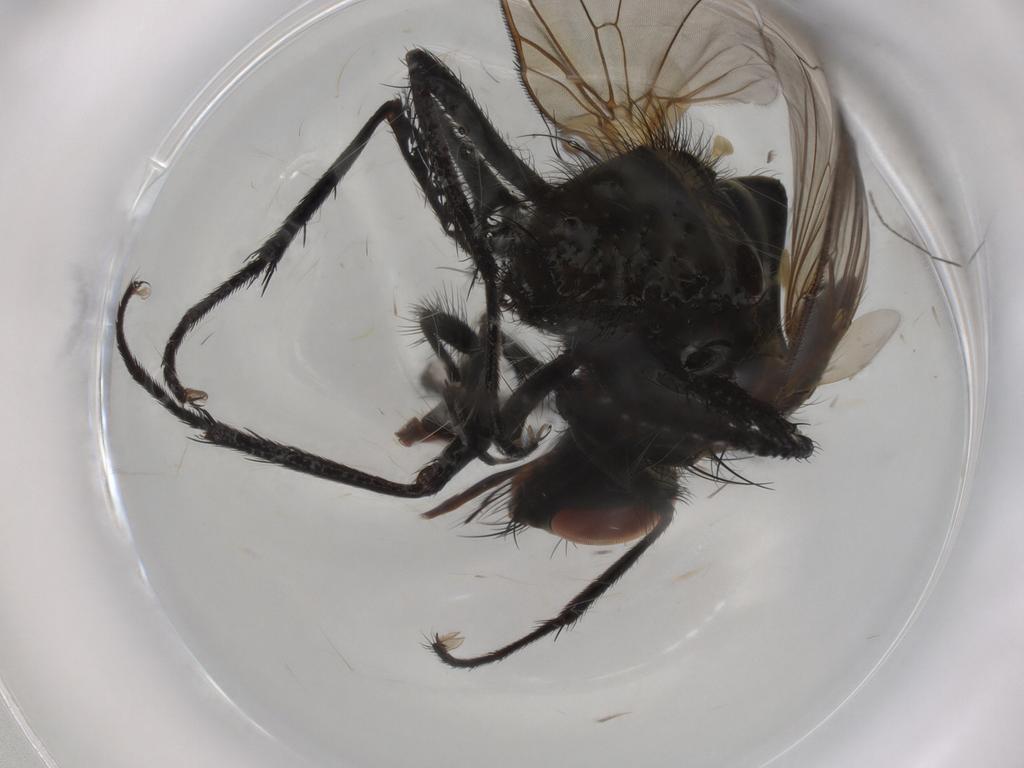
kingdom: Animalia
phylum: Arthropoda
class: Insecta
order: Diptera
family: Anthomyiidae
